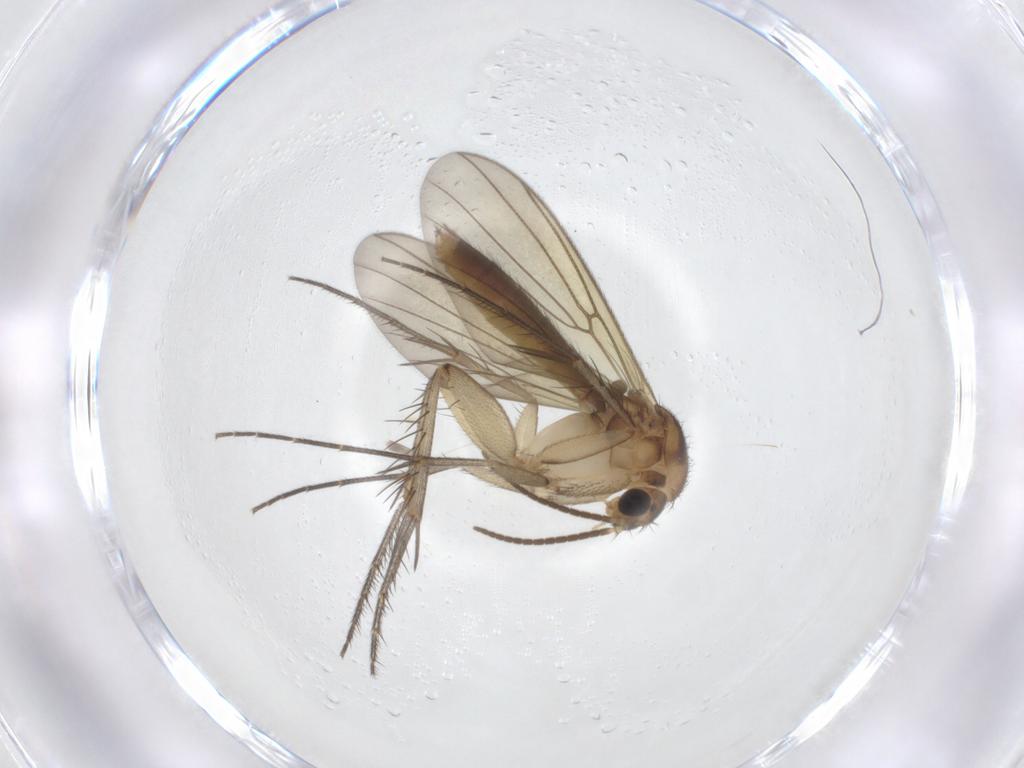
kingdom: Animalia
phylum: Arthropoda
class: Insecta
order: Diptera
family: Mycetophilidae
